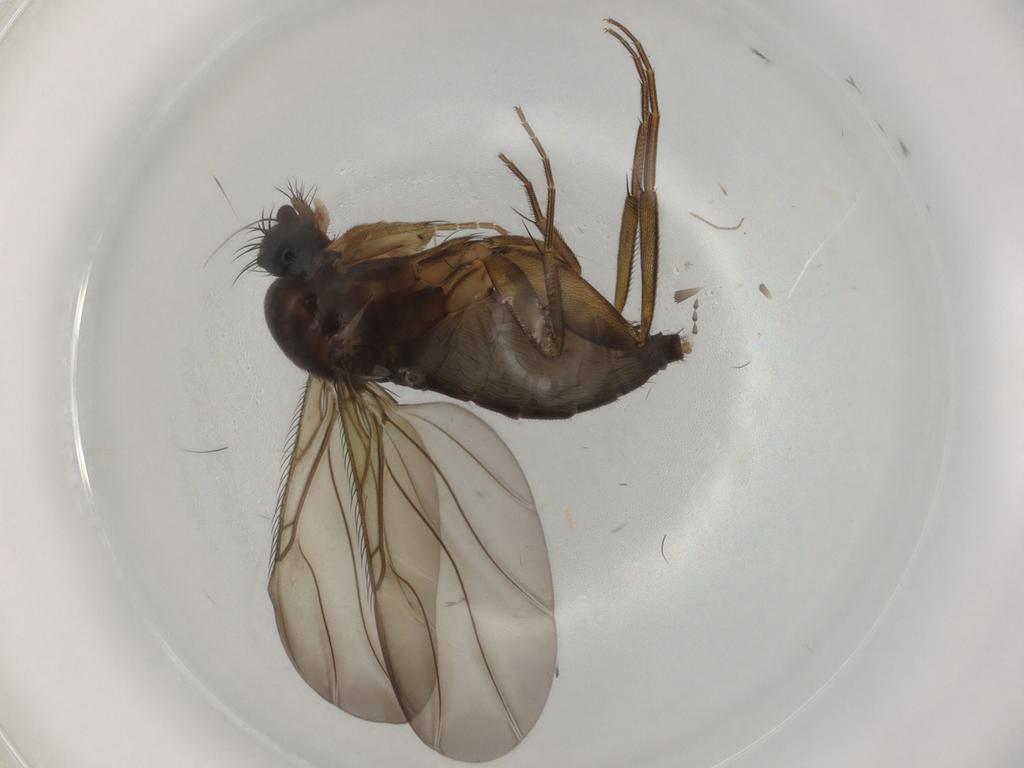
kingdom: Animalia
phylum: Arthropoda
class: Insecta
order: Diptera
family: Phoridae
